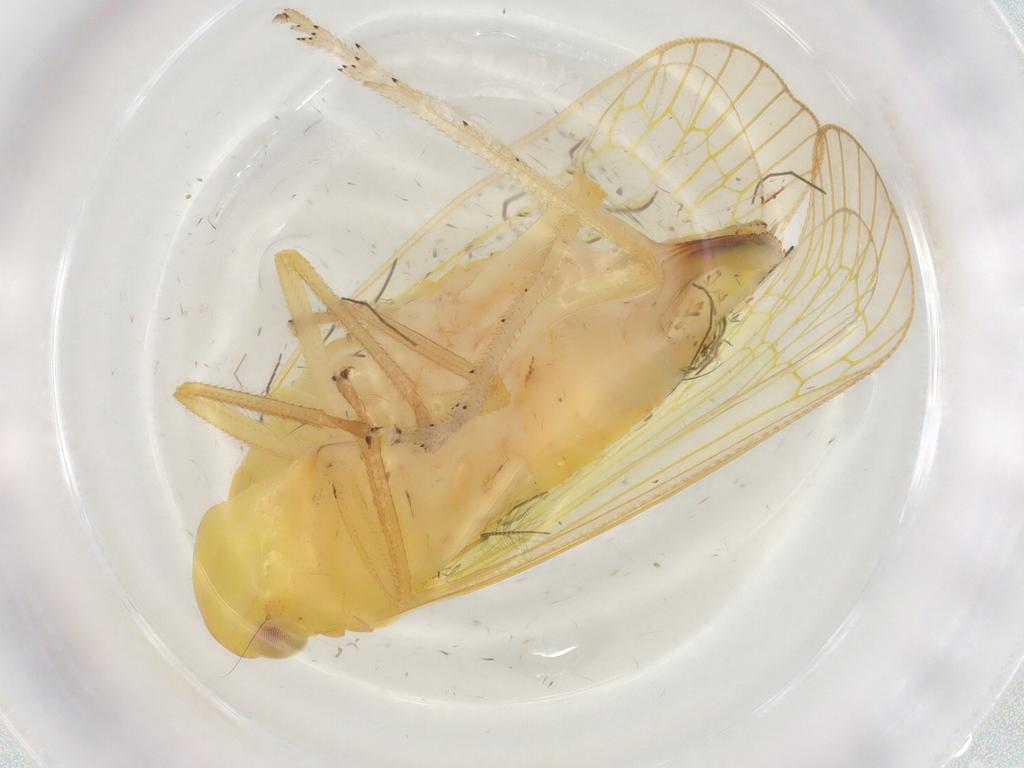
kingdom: Animalia
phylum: Arthropoda
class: Insecta
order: Hemiptera
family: Tropiduchidae
